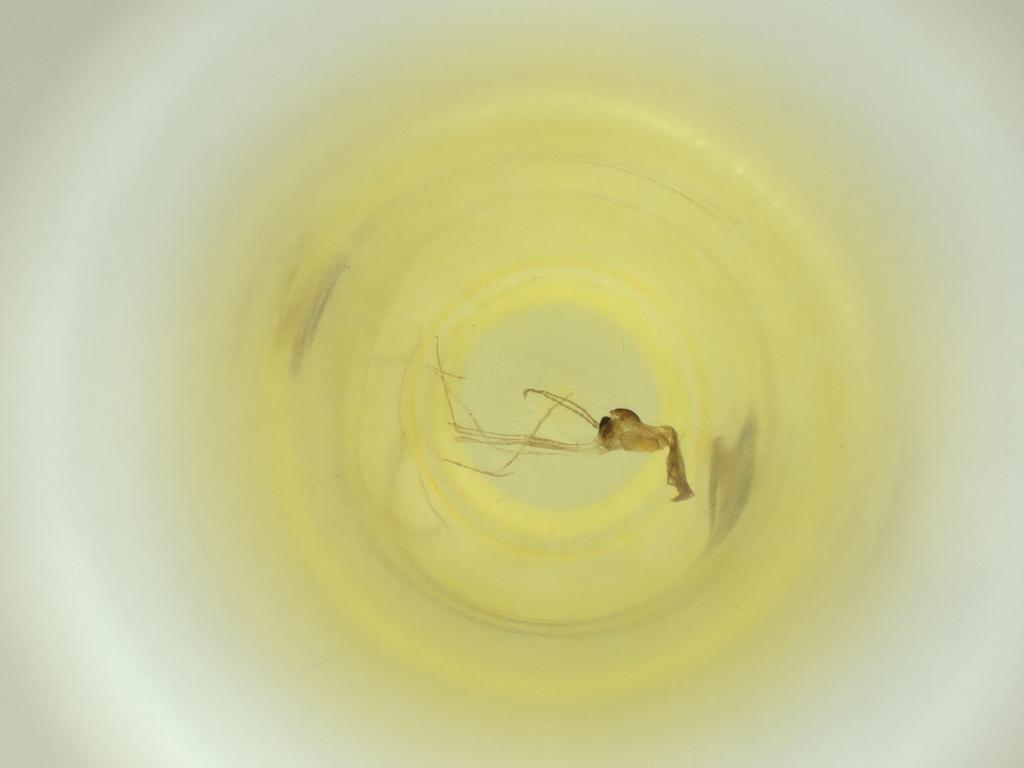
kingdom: Animalia
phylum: Arthropoda
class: Insecta
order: Diptera
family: Cecidomyiidae
